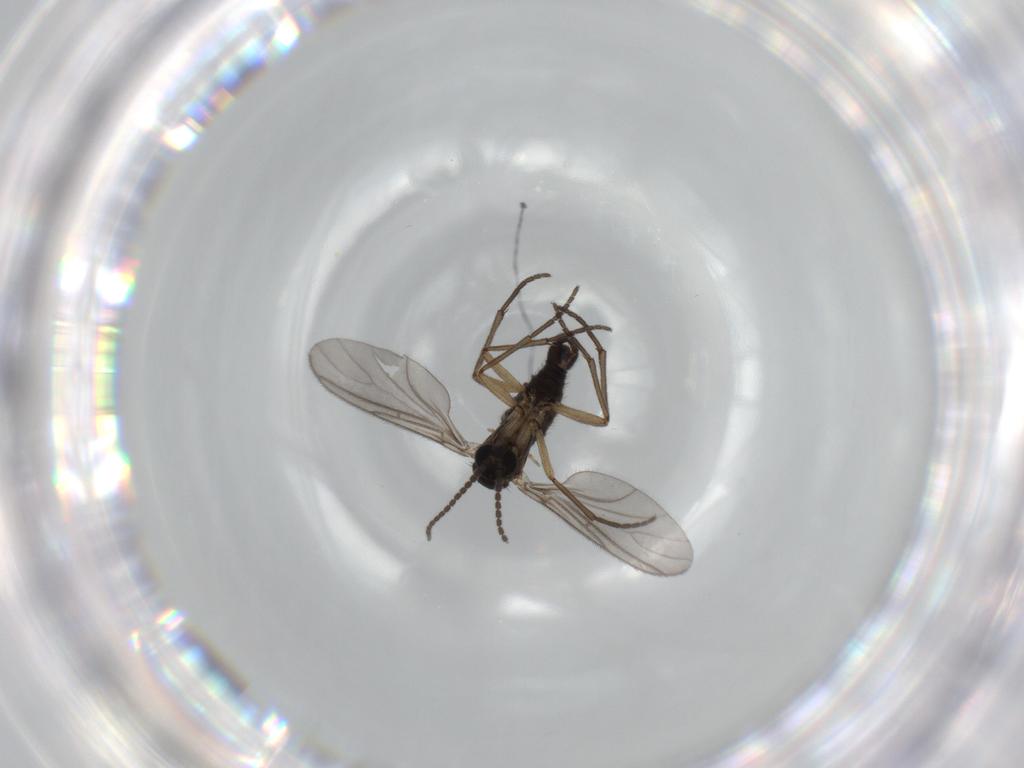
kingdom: Animalia
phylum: Arthropoda
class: Insecta
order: Diptera
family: Sciaridae
